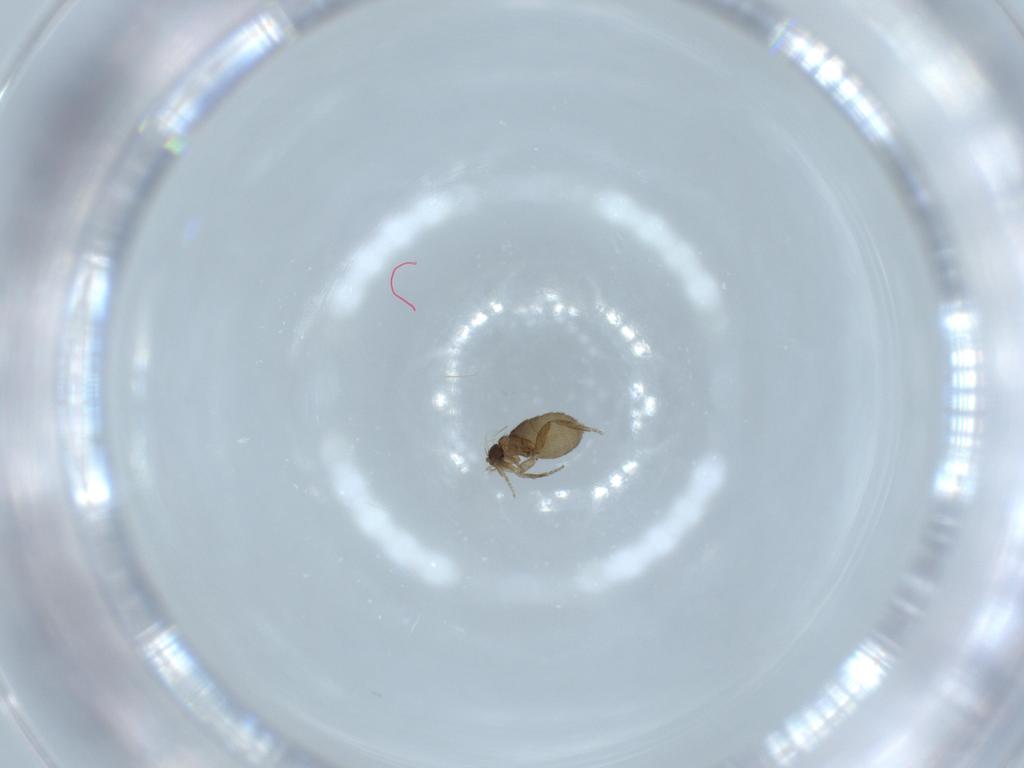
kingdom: Animalia
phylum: Arthropoda
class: Insecta
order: Diptera
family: Phoridae
